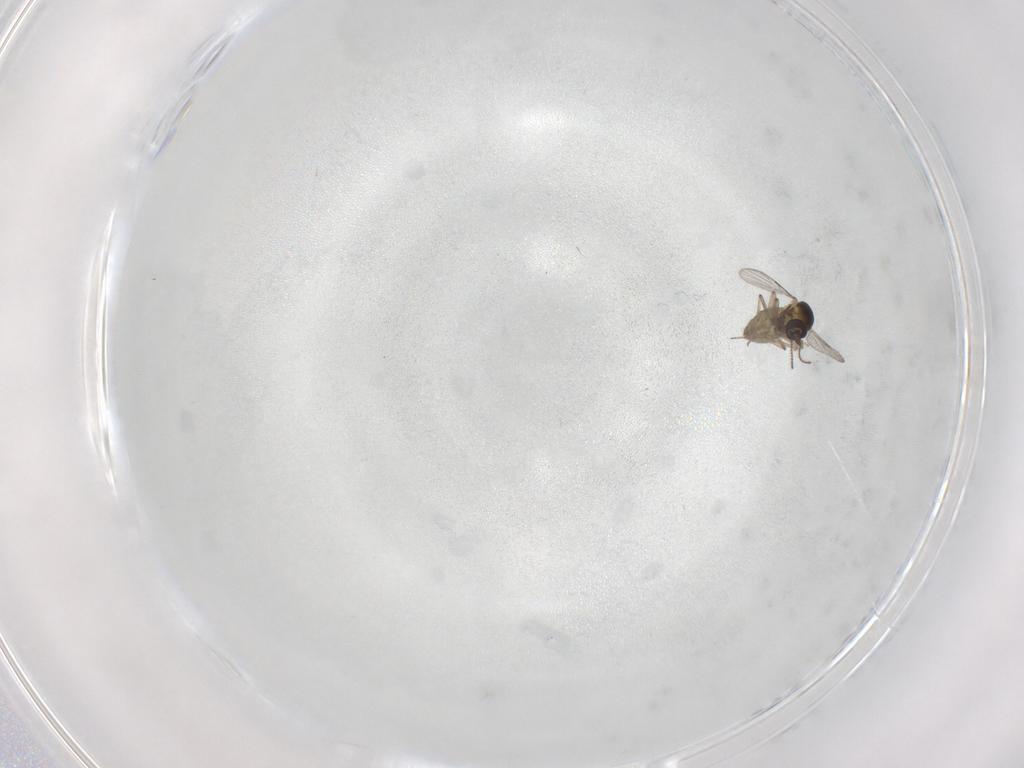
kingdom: Animalia
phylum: Arthropoda
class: Insecta
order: Diptera
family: Ceratopogonidae
